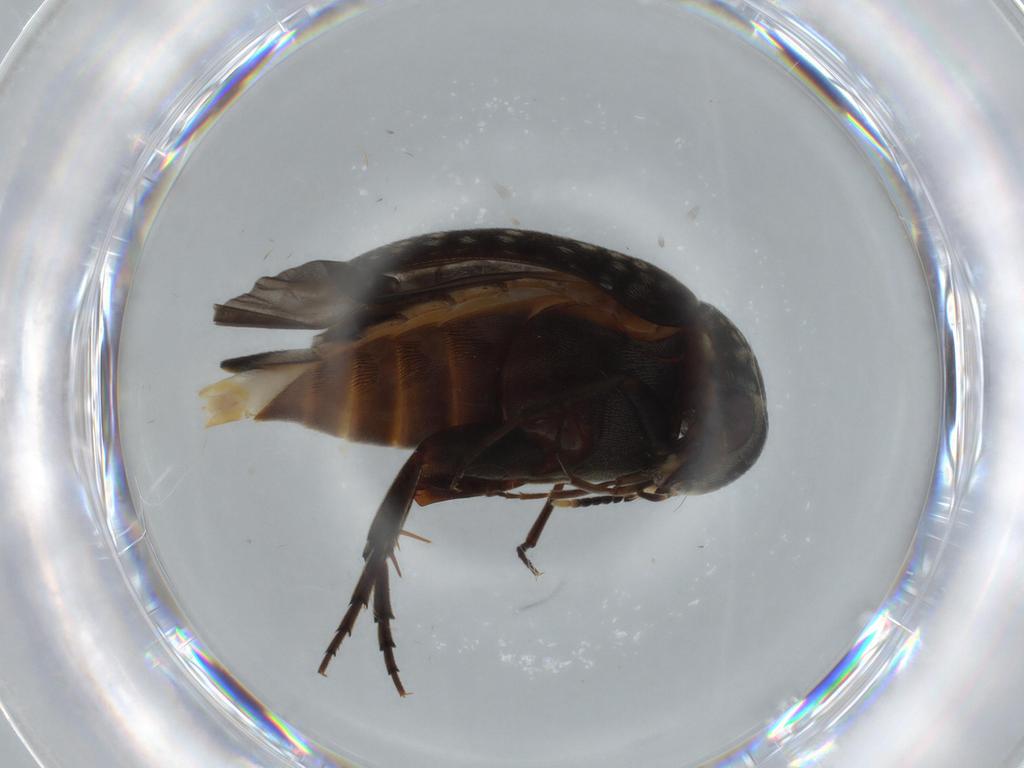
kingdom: Animalia
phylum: Arthropoda
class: Insecta
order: Coleoptera
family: Mordellidae
